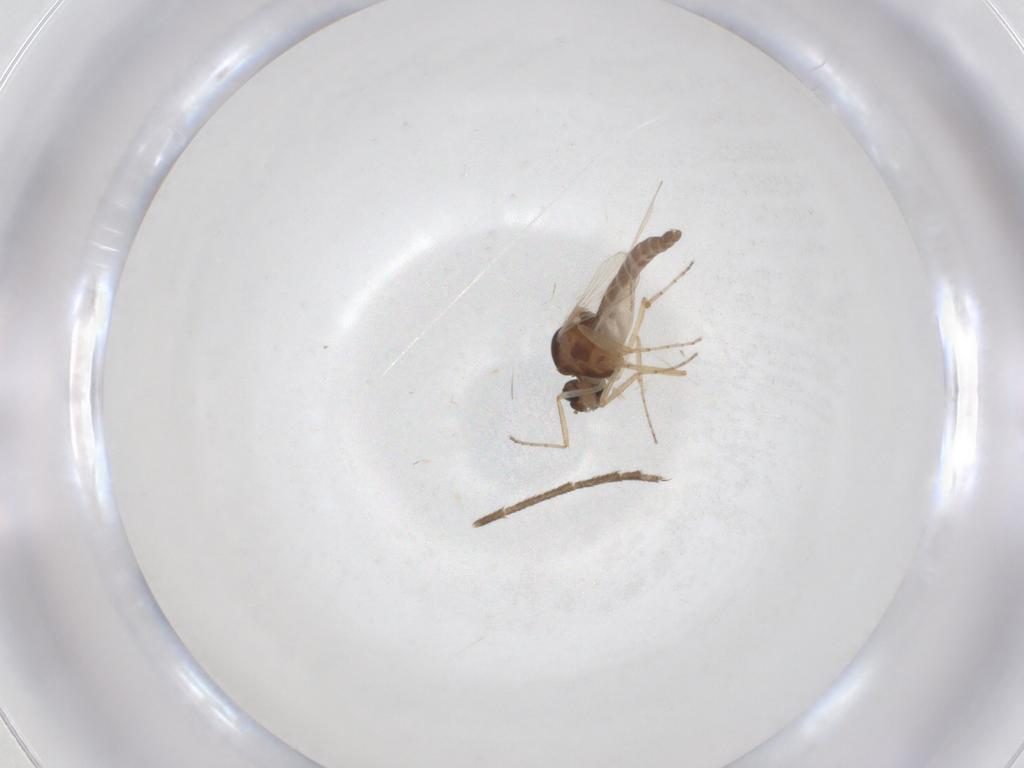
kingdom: Animalia
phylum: Arthropoda
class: Insecta
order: Diptera
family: Ceratopogonidae
